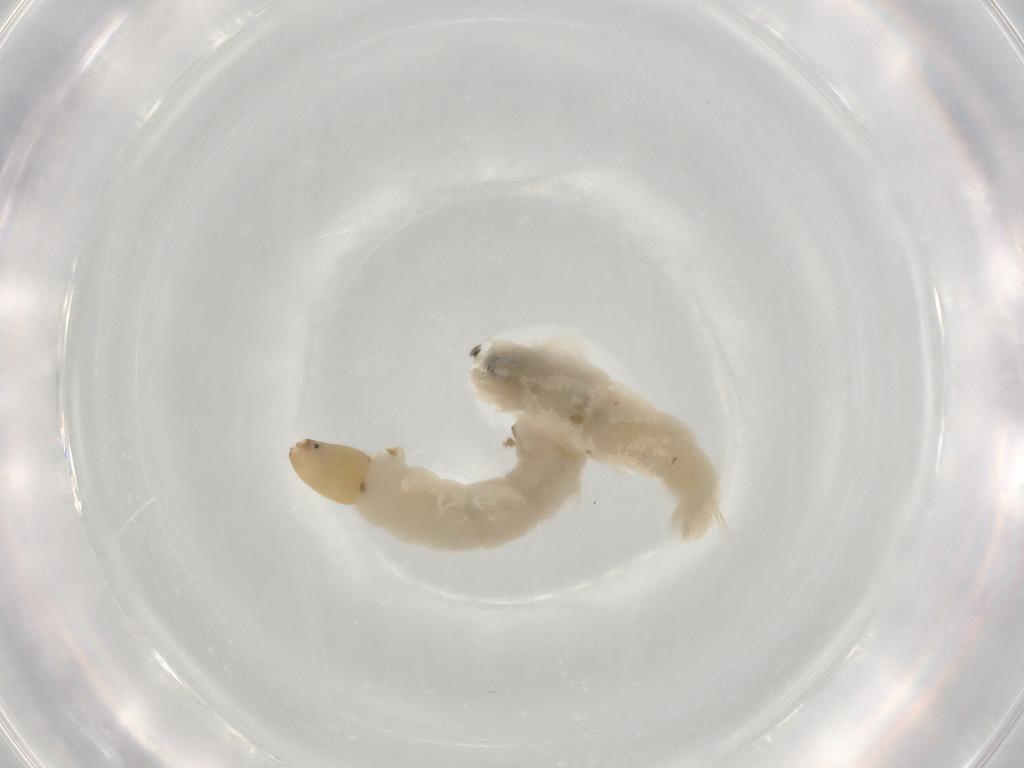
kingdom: Animalia
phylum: Arthropoda
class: Insecta
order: Diptera
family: Chironomidae
